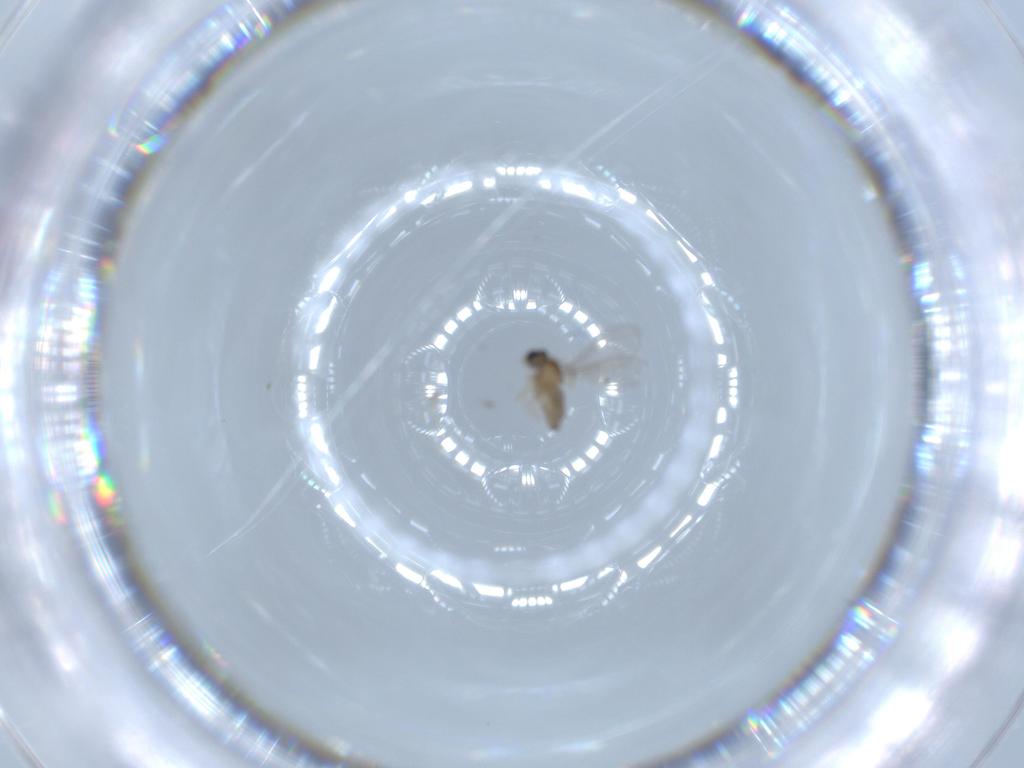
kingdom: Animalia
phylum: Arthropoda
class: Insecta
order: Diptera
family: Cecidomyiidae
